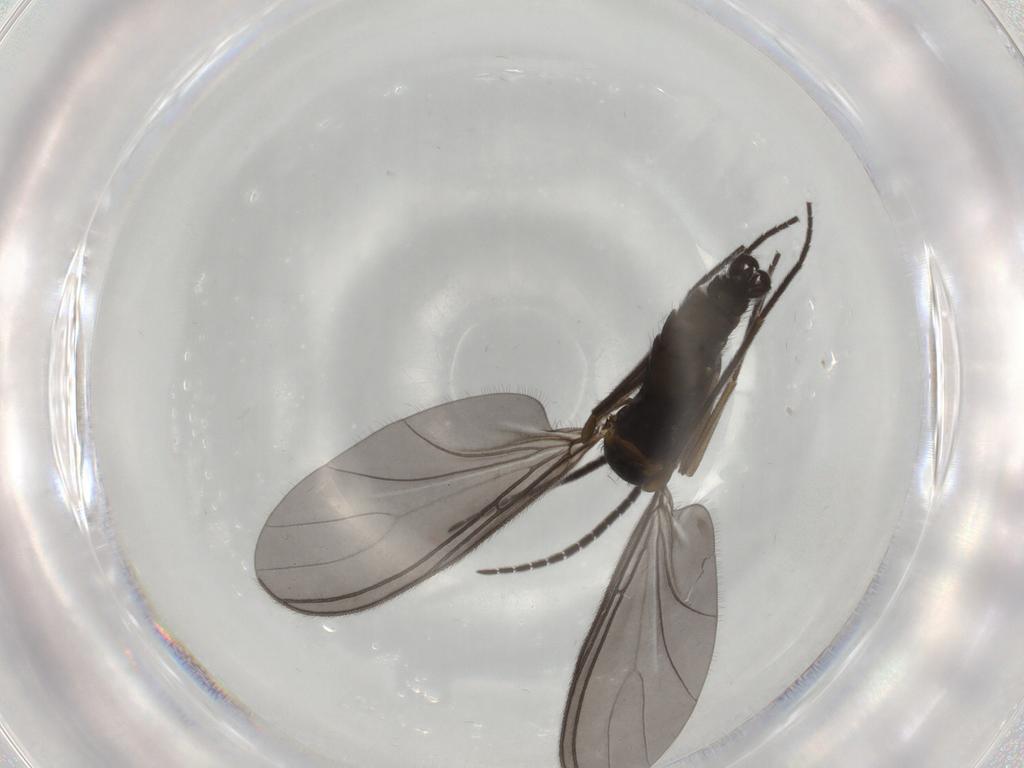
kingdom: Animalia
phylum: Arthropoda
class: Insecta
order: Diptera
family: Sciaridae
